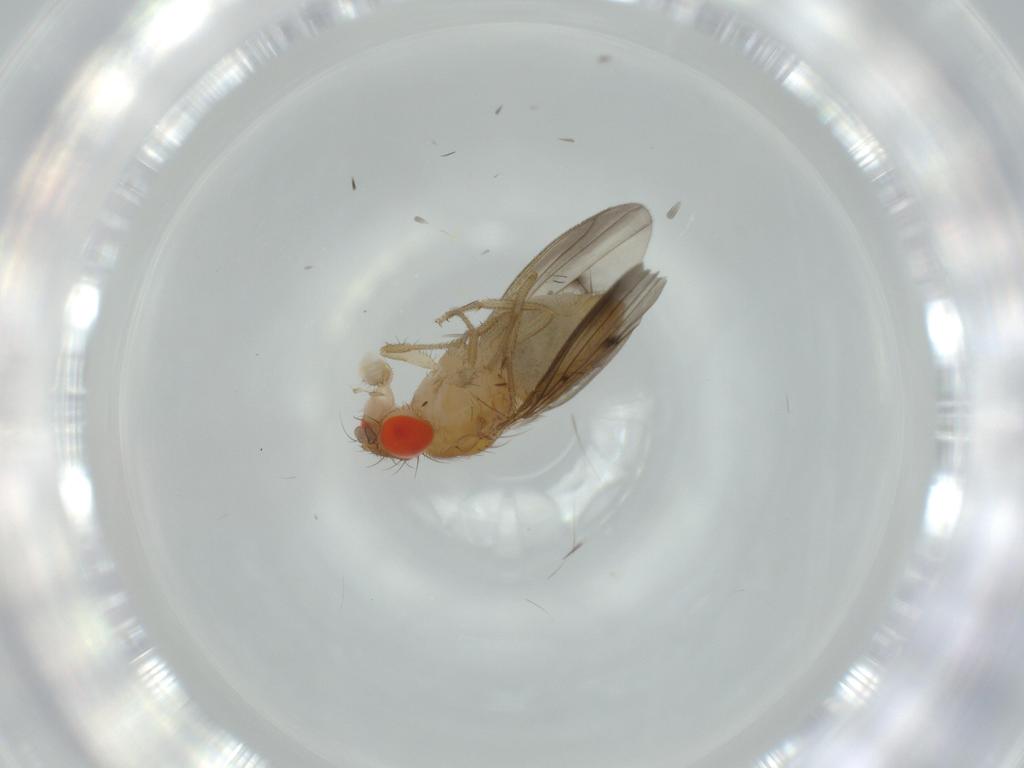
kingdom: Animalia
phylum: Arthropoda
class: Insecta
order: Diptera
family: Drosophilidae
